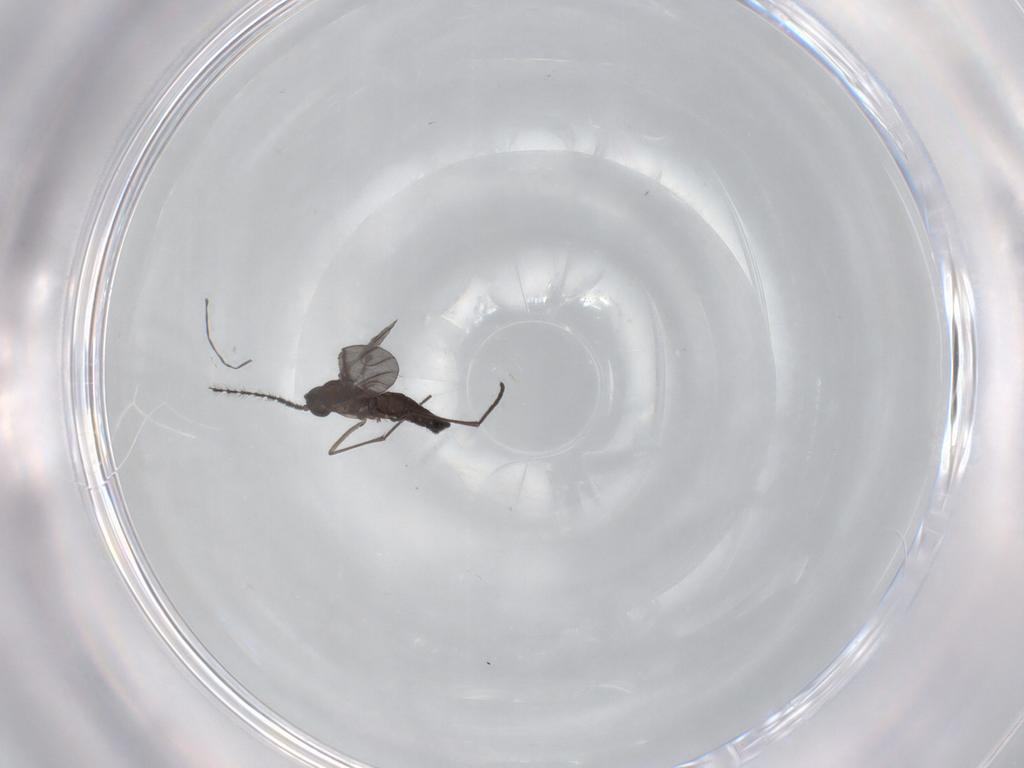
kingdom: Animalia
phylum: Arthropoda
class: Insecta
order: Diptera
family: Sciaridae
